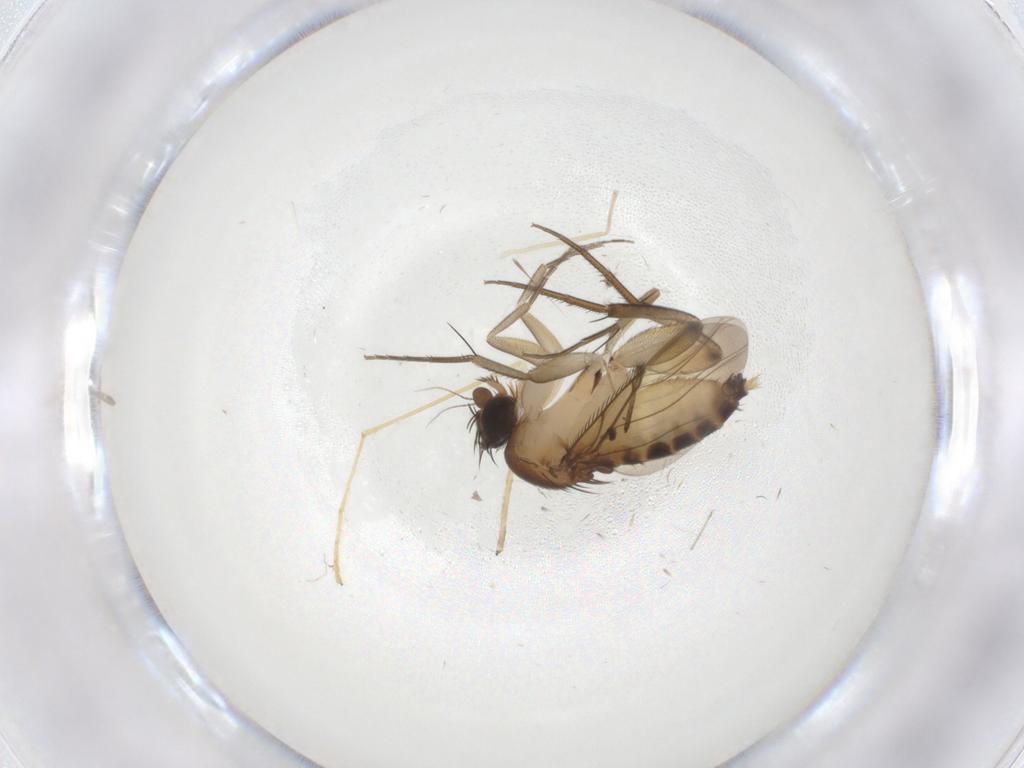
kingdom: Animalia
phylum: Arthropoda
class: Insecta
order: Diptera
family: Phoridae
